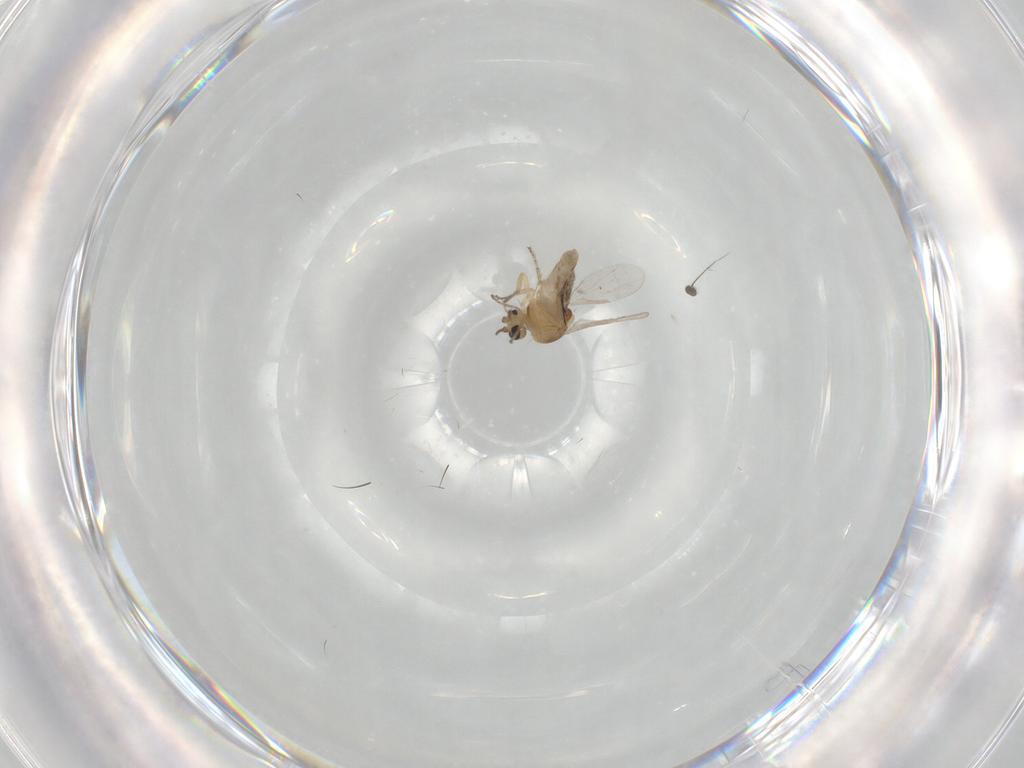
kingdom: Animalia
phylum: Arthropoda
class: Insecta
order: Diptera
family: Ceratopogonidae
